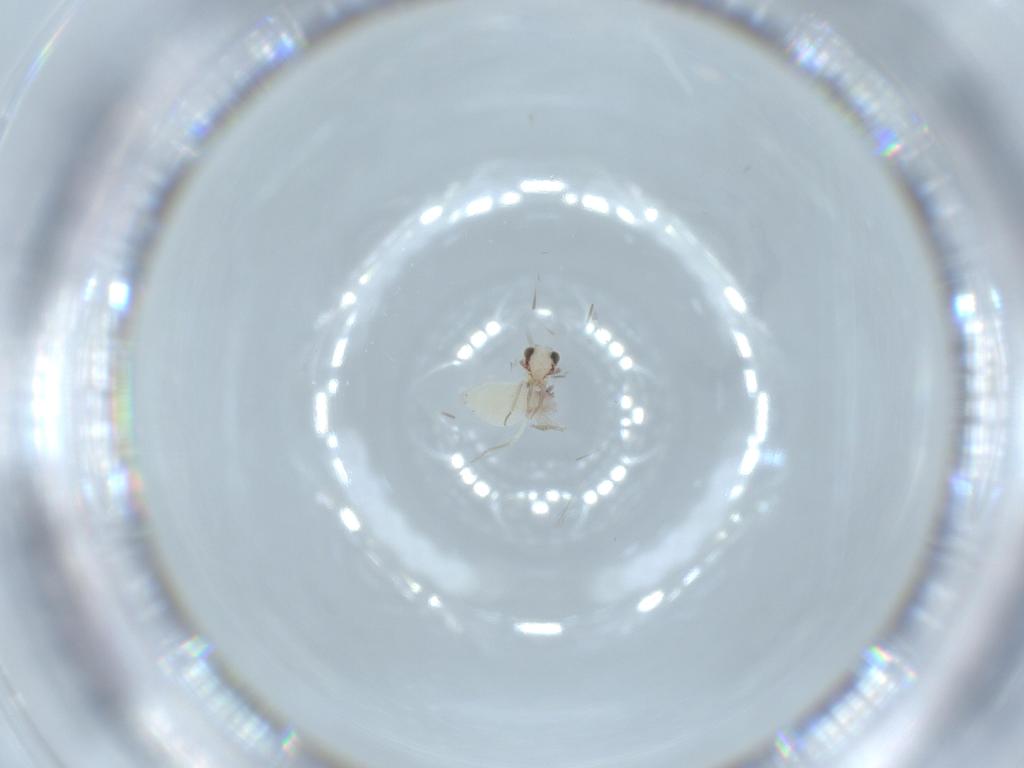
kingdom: Animalia
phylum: Arthropoda
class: Insecta
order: Psocodea
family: Lepidopsocidae
